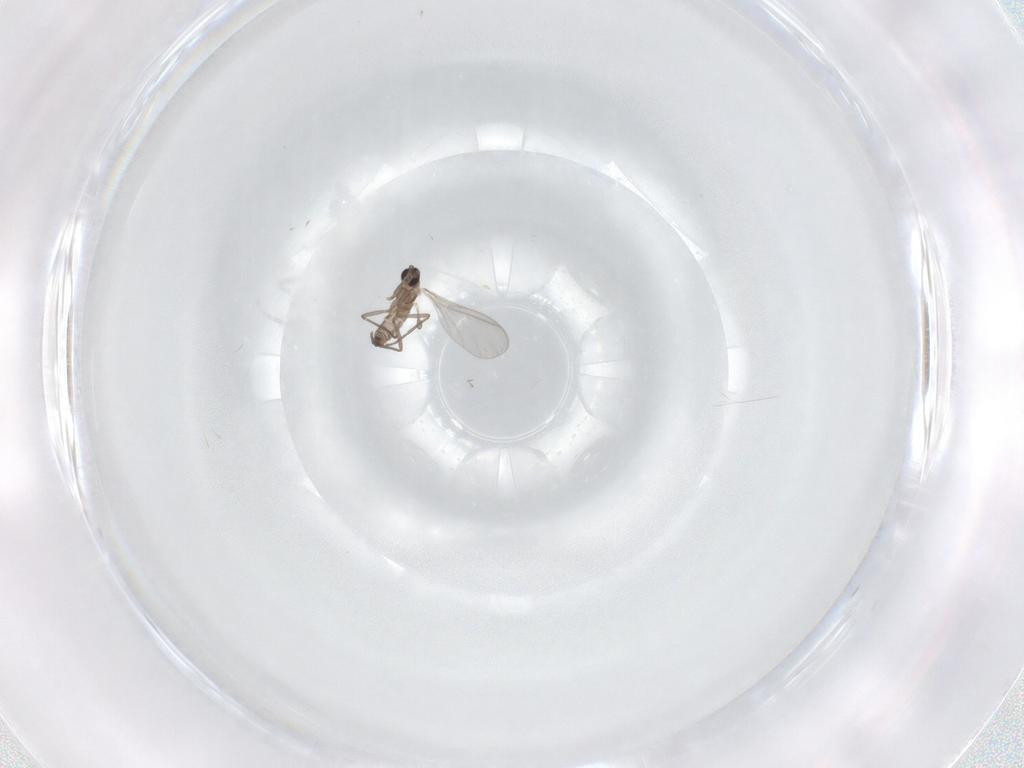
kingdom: Animalia
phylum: Arthropoda
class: Insecta
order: Diptera
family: Sciaridae
